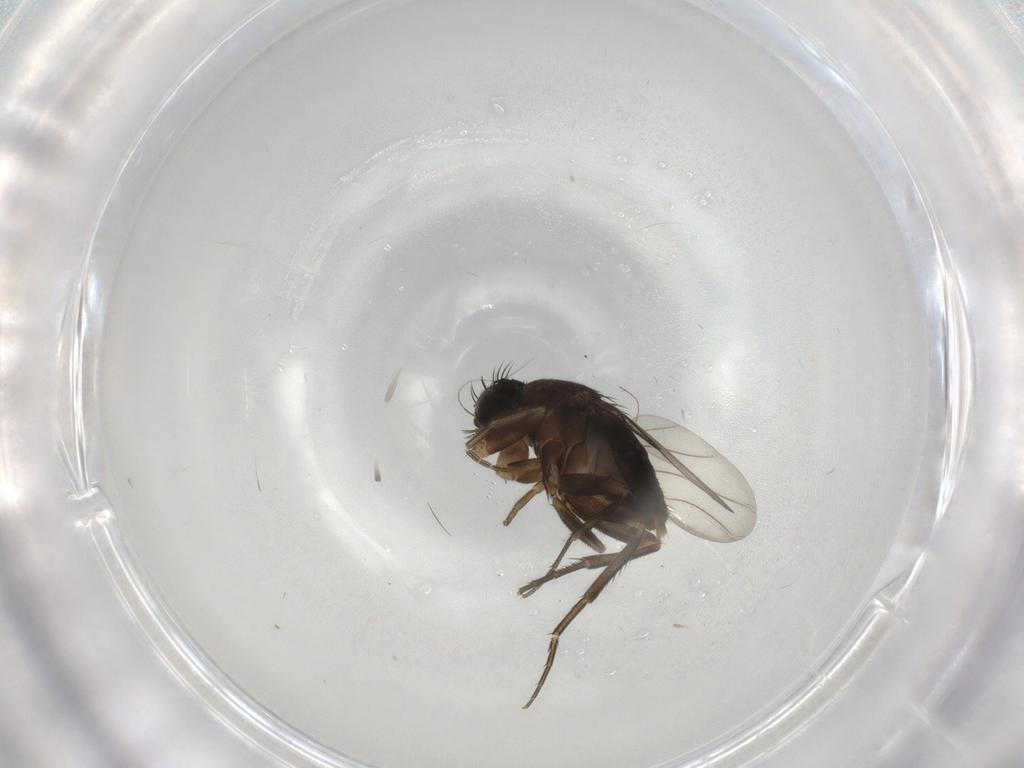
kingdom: Animalia
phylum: Arthropoda
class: Insecta
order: Diptera
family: Phoridae
